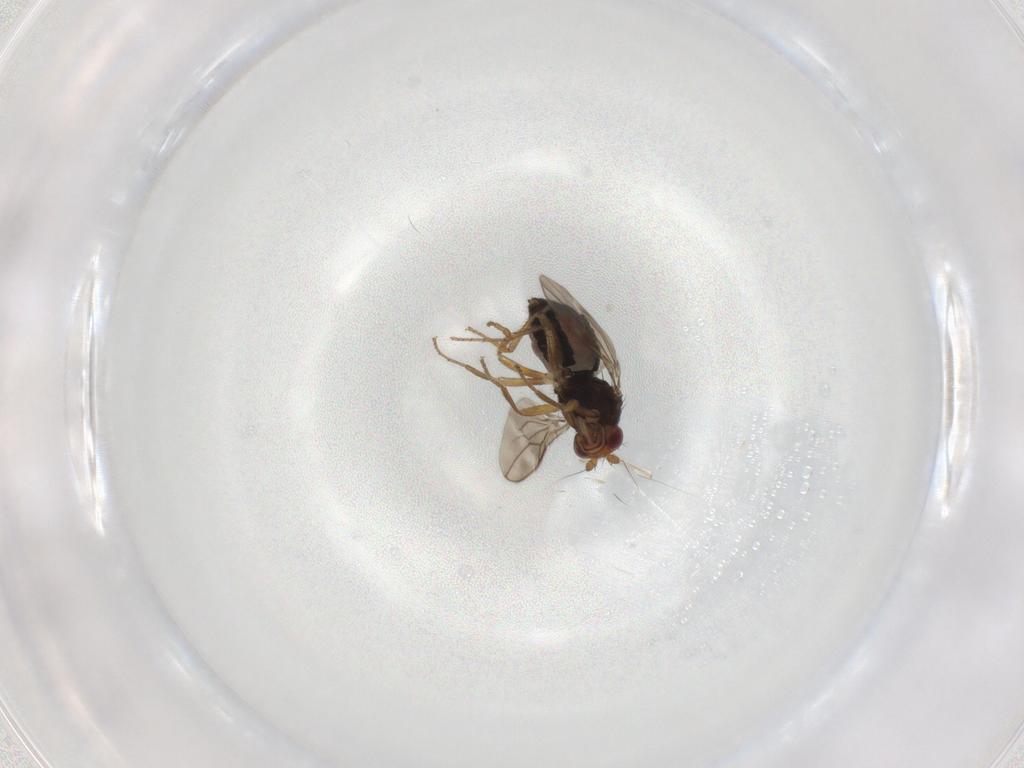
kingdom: Animalia
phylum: Arthropoda
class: Insecta
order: Diptera
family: Sphaeroceridae
